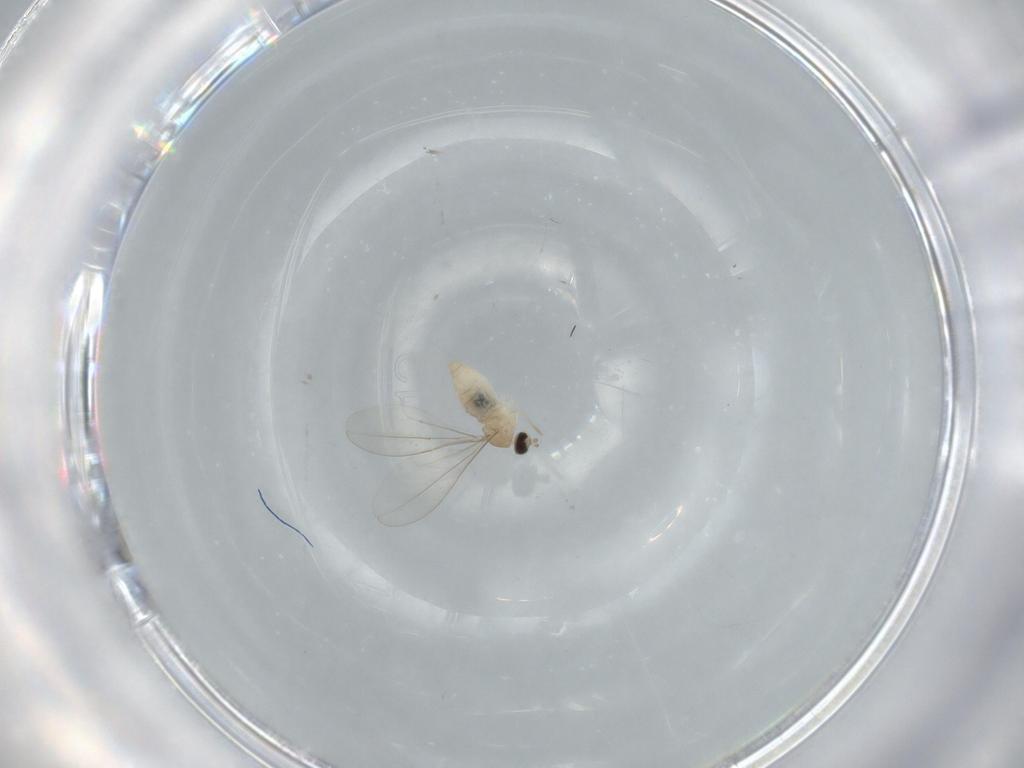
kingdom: Animalia
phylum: Arthropoda
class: Insecta
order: Diptera
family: Cecidomyiidae
